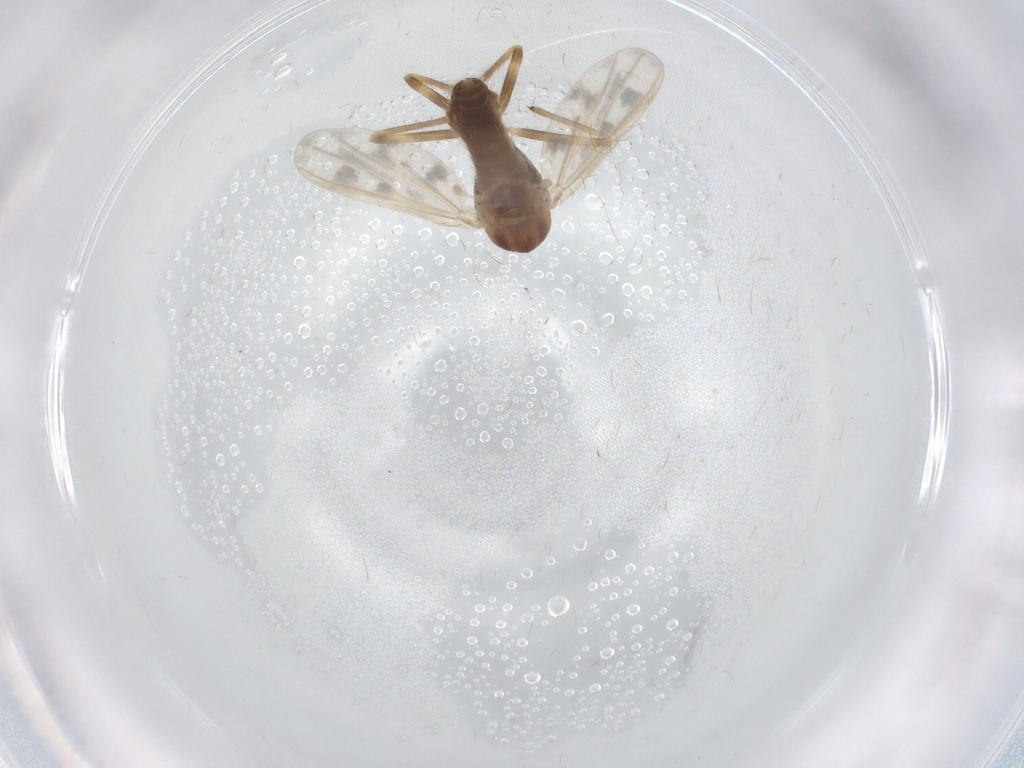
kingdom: Animalia
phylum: Arthropoda
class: Insecta
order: Diptera
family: Chironomidae
